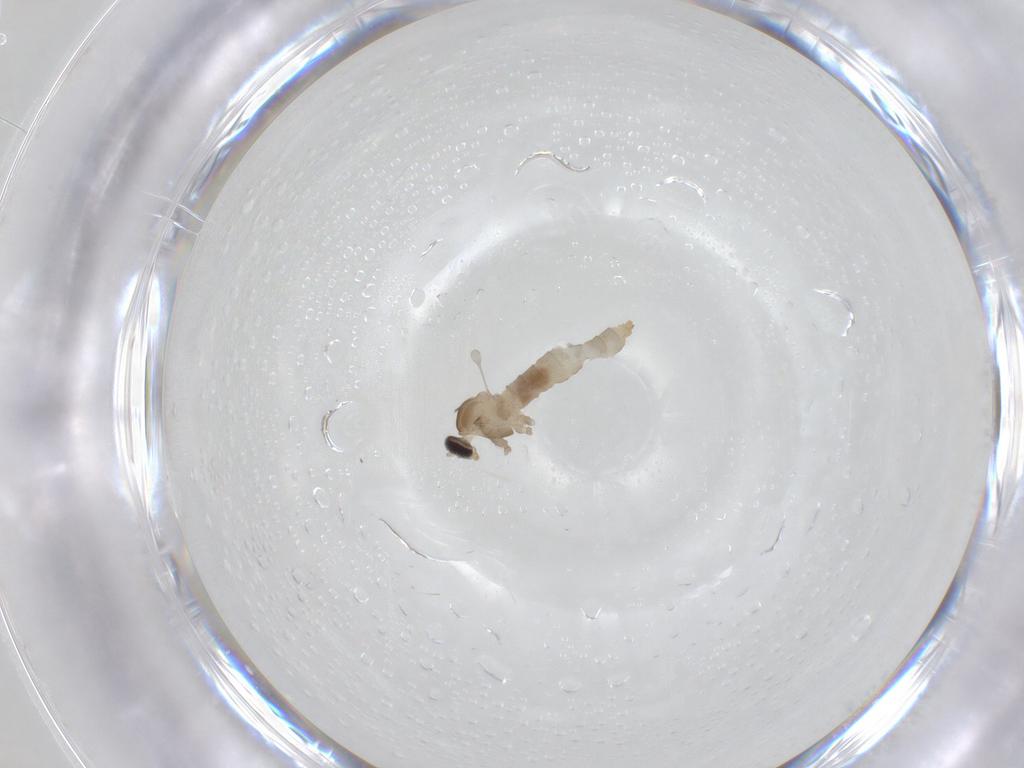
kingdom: Animalia
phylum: Arthropoda
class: Insecta
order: Diptera
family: Cecidomyiidae
